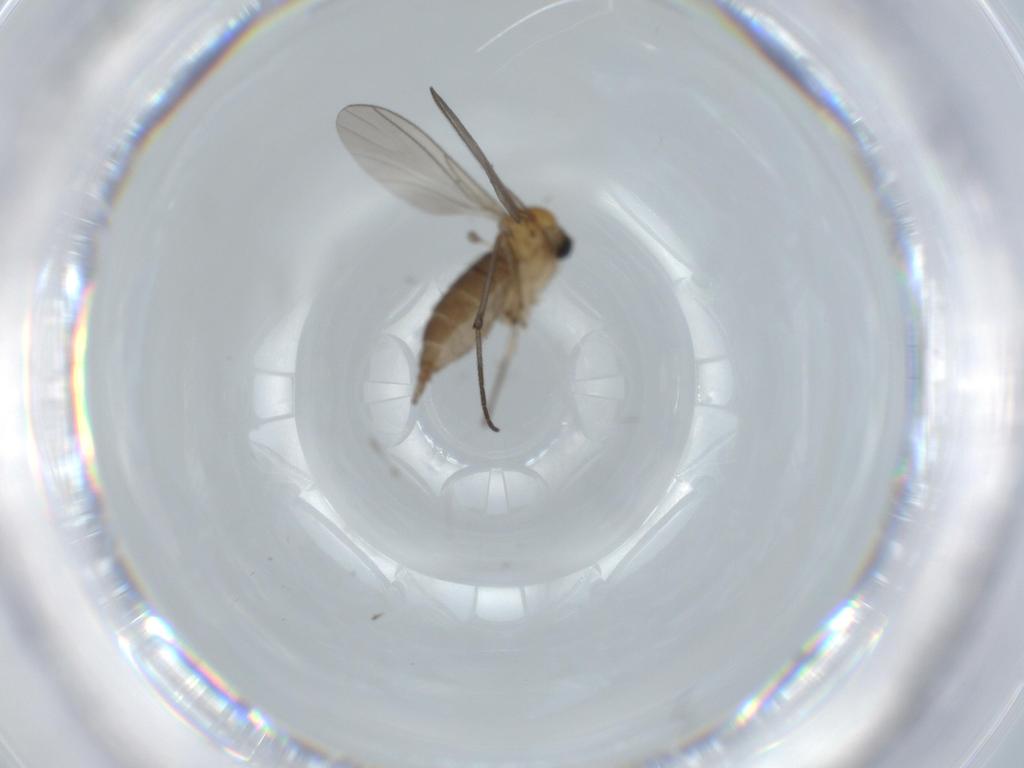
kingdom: Animalia
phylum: Arthropoda
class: Insecta
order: Diptera
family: Sciaridae
